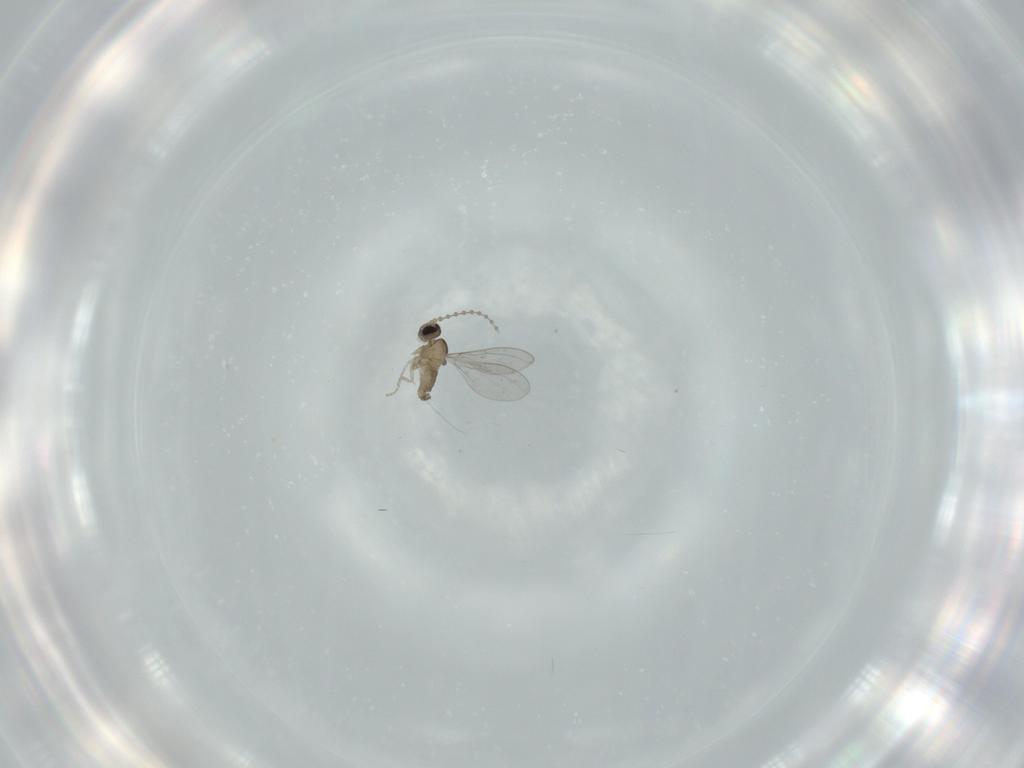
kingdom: Animalia
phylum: Arthropoda
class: Insecta
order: Diptera
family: Cecidomyiidae
